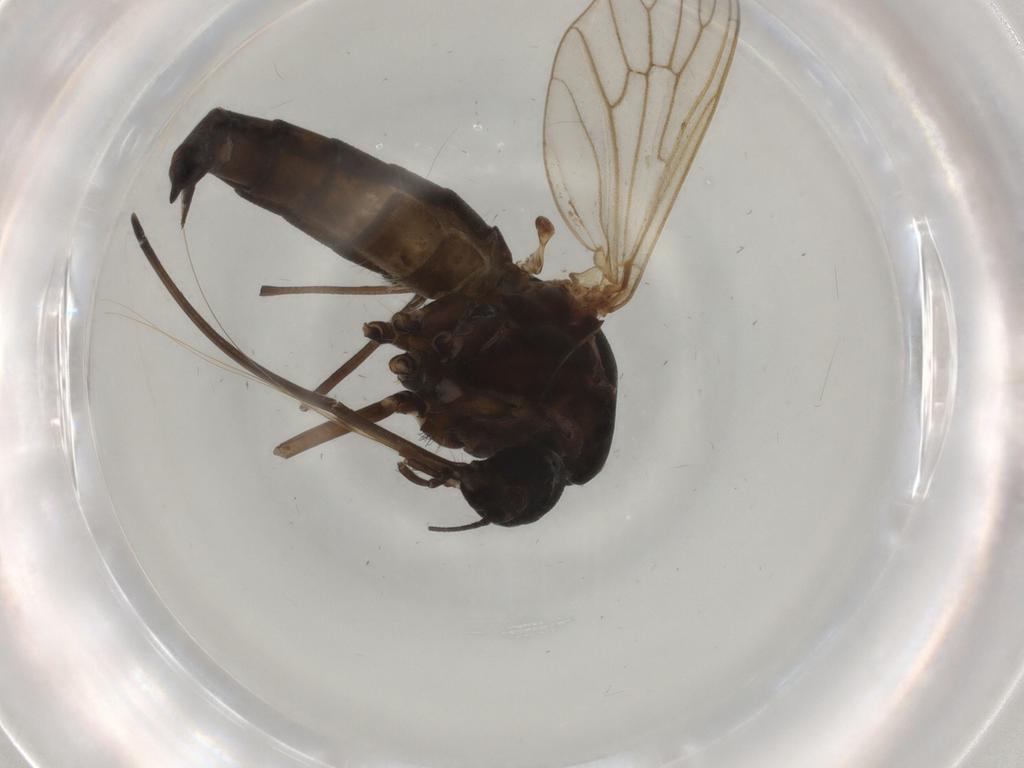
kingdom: Animalia
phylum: Arthropoda
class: Insecta
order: Diptera
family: Culicidae
